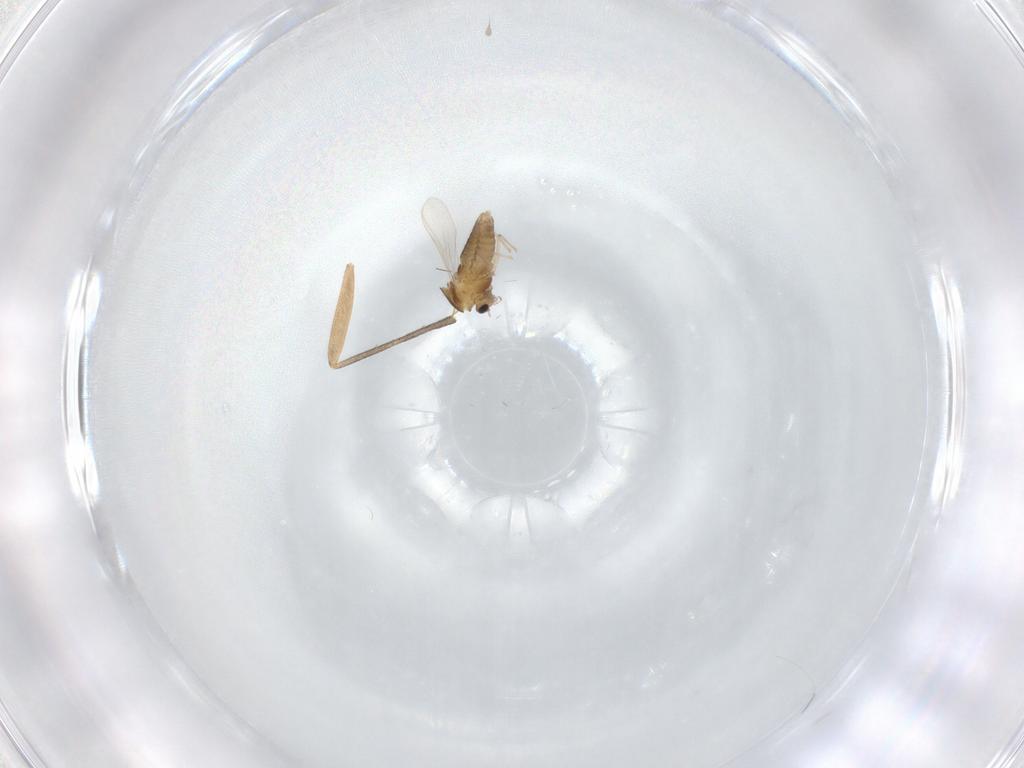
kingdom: Animalia
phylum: Arthropoda
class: Insecta
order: Diptera
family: Chironomidae
